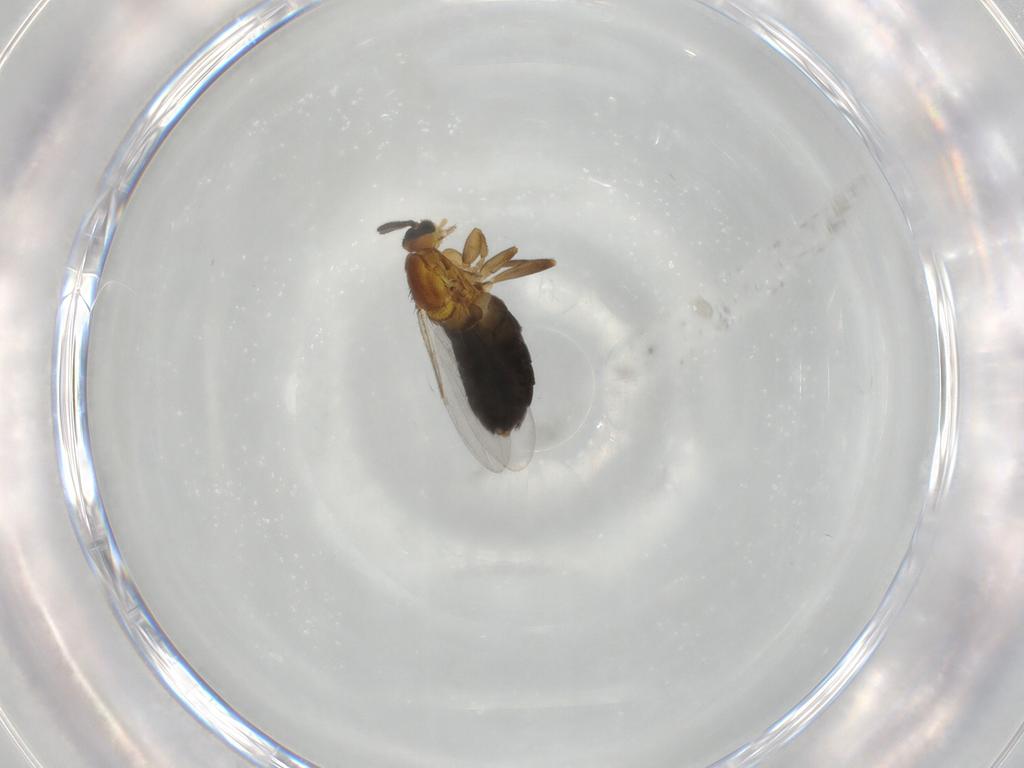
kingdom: Animalia
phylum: Arthropoda
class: Insecta
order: Diptera
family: Scatopsidae
